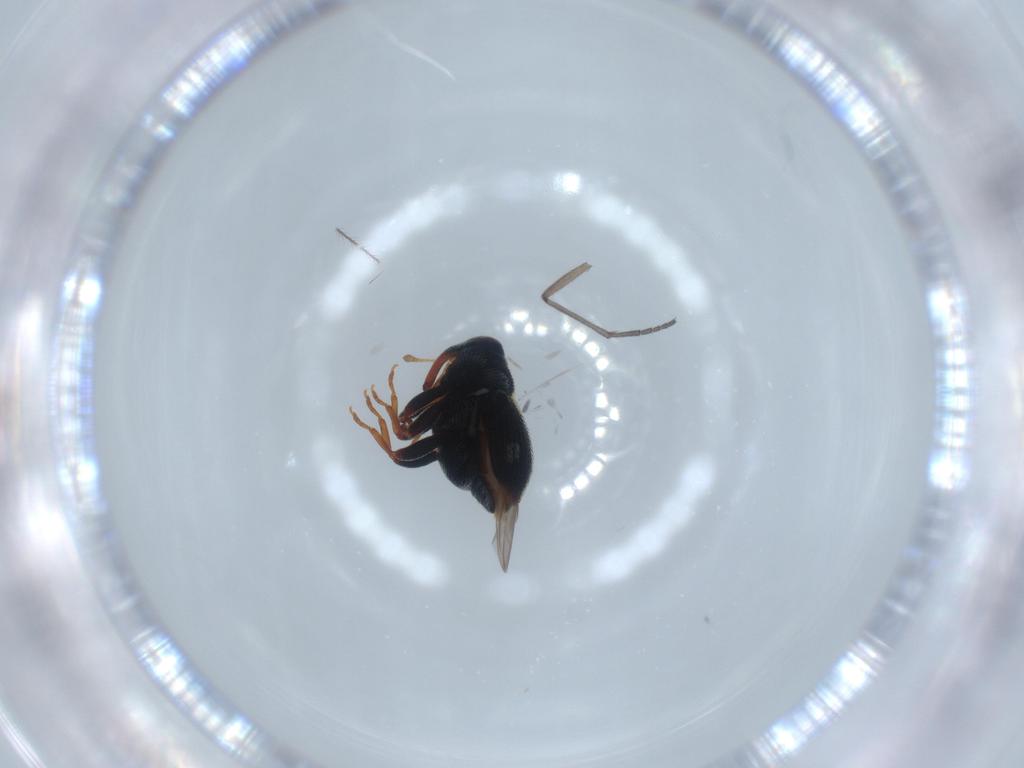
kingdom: Animalia
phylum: Arthropoda
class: Insecta
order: Coleoptera
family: Curculionidae
